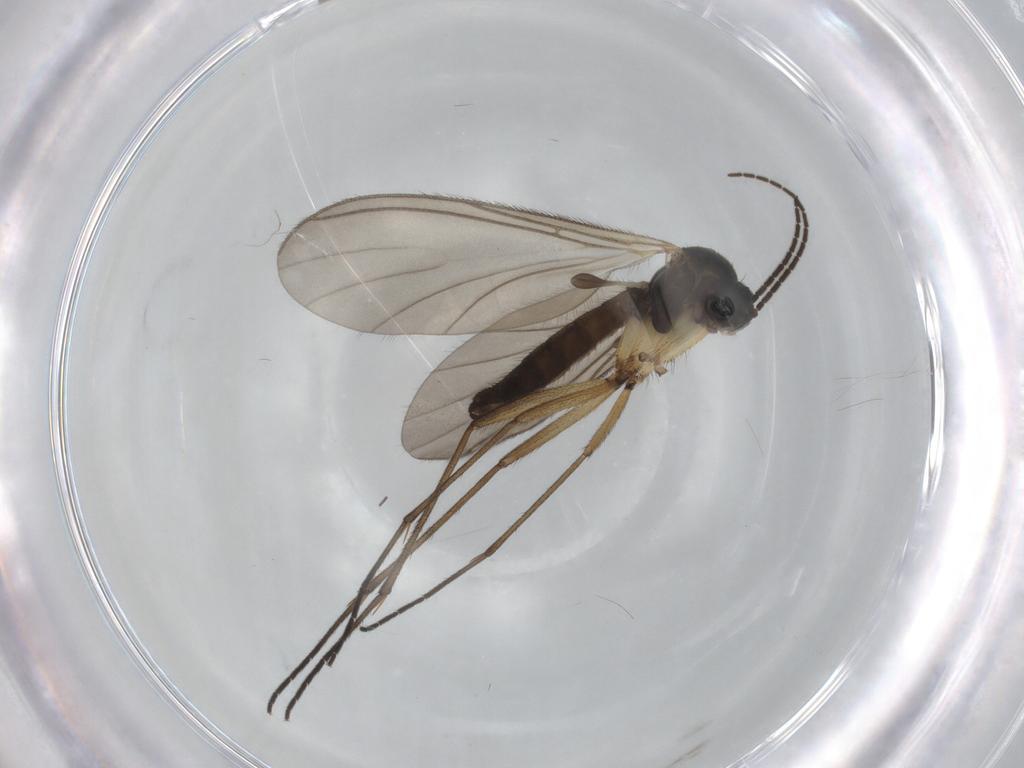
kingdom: Animalia
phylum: Arthropoda
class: Insecta
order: Diptera
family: Sciaridae
